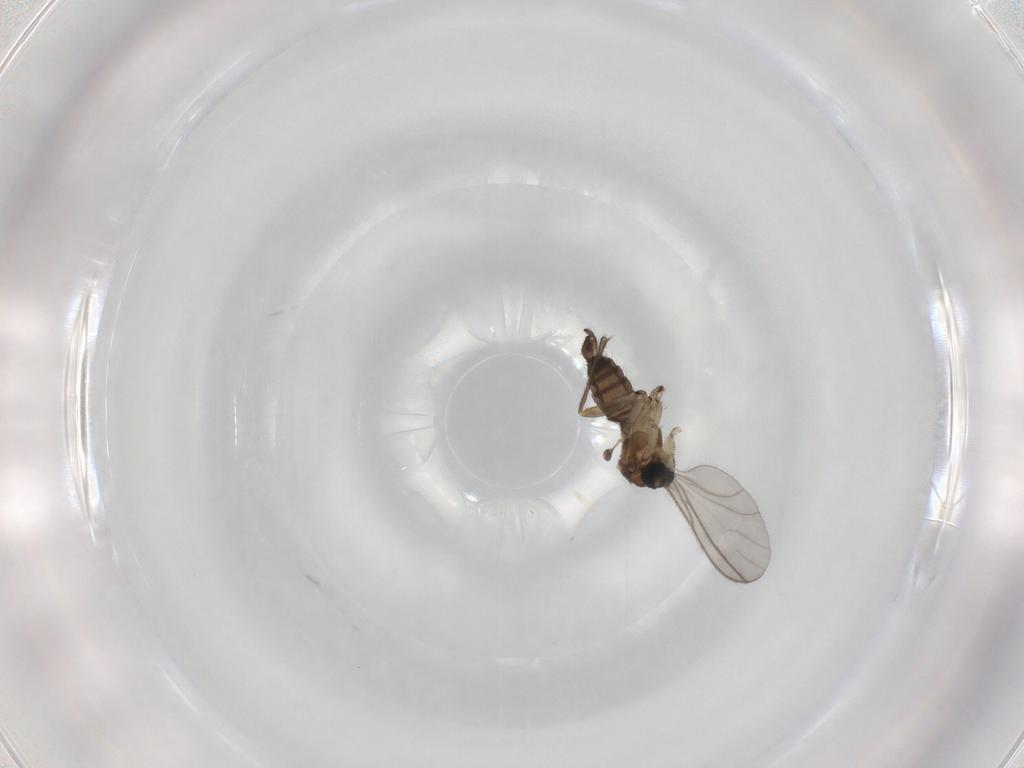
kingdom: Animalia
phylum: Arthropoda
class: Insecta
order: Diptera
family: Sciaridae
